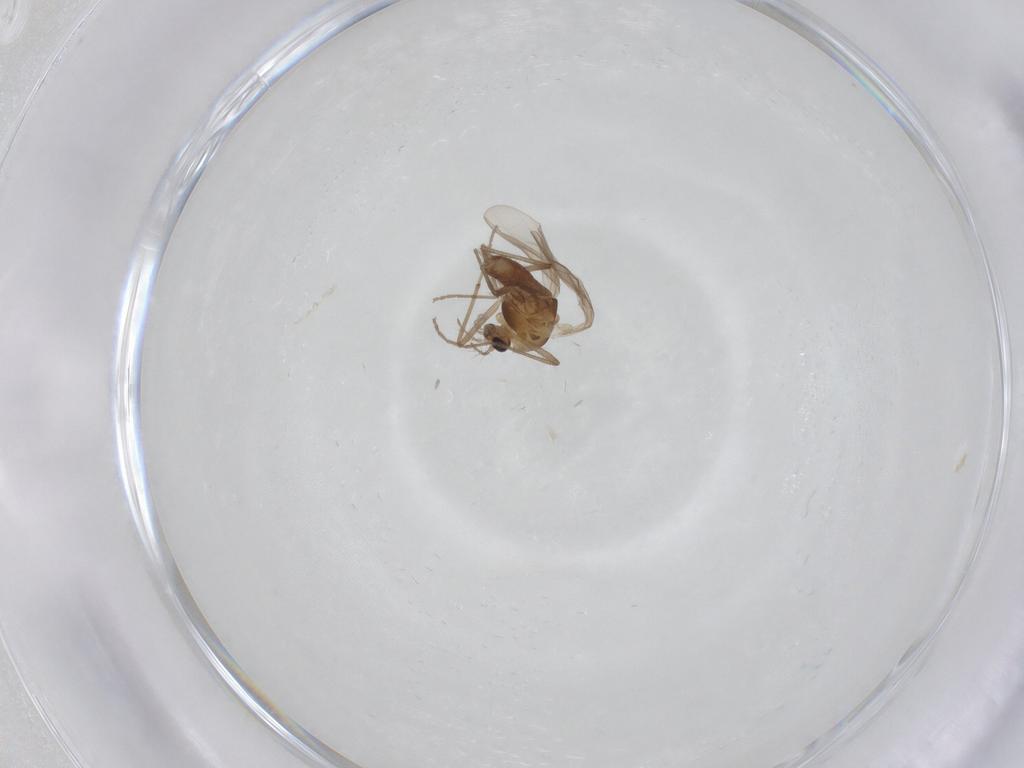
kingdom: Animalia
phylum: Arthropoda
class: Insecta
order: Diptera
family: Chironomidae
